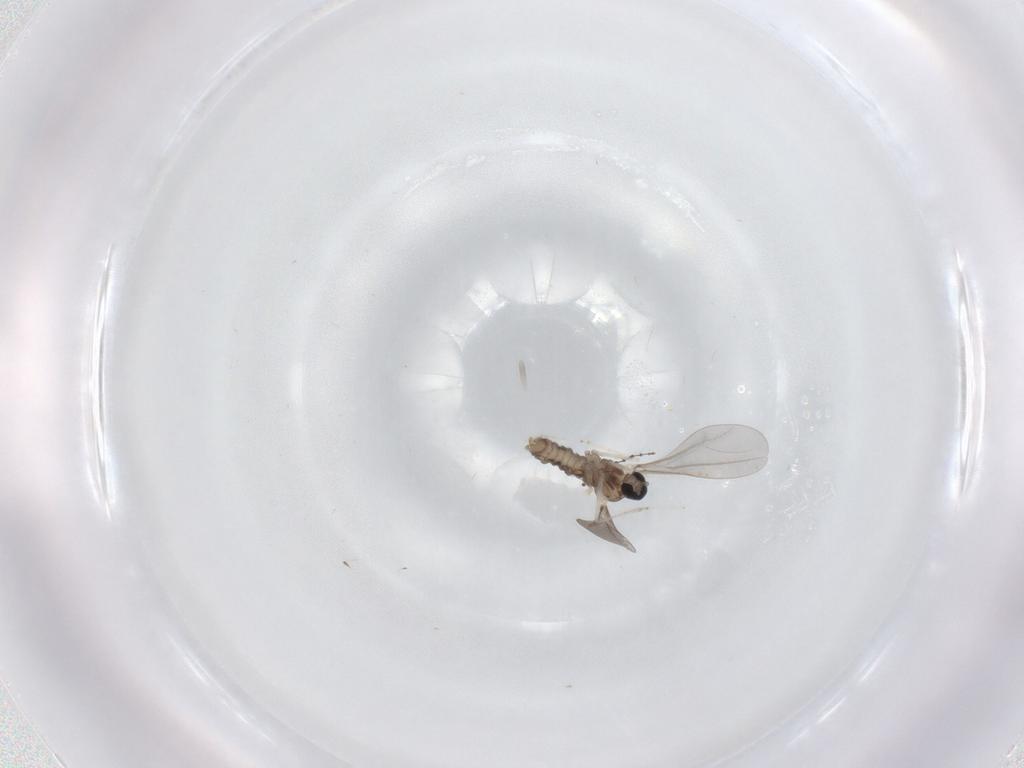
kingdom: Animalia
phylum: Arthropoda
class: Insecta
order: Diptera
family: Cecidomyiidae
